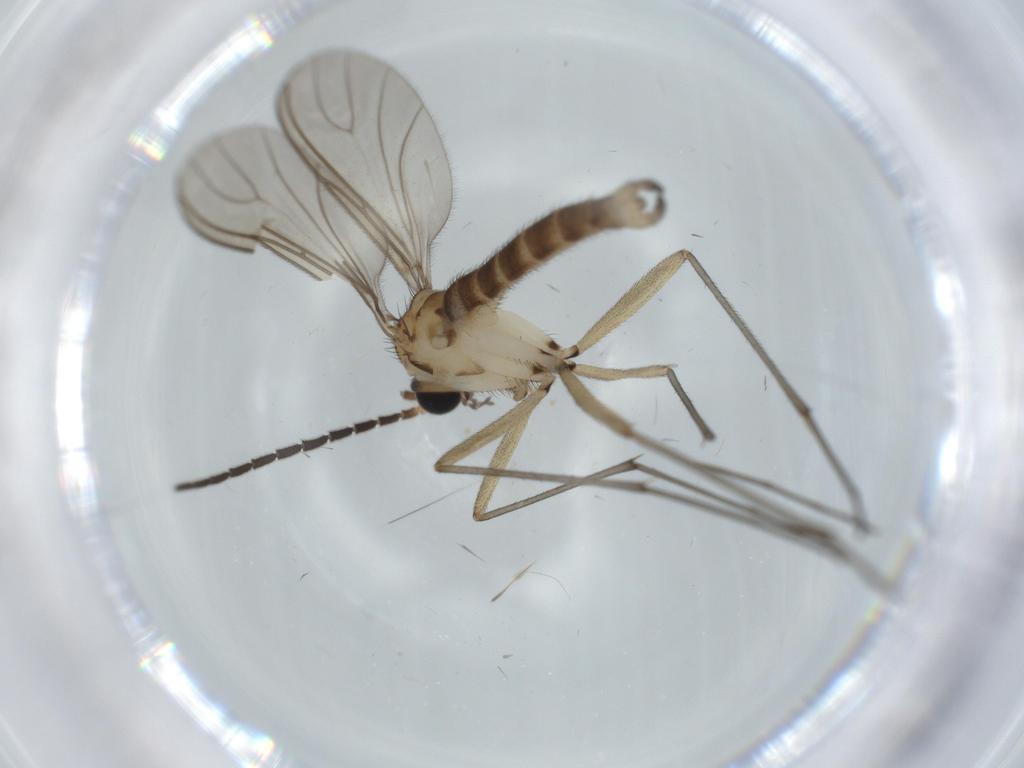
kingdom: Animalia
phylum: Arthropoda
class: Insecta
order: Diptera
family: Sciaridae
